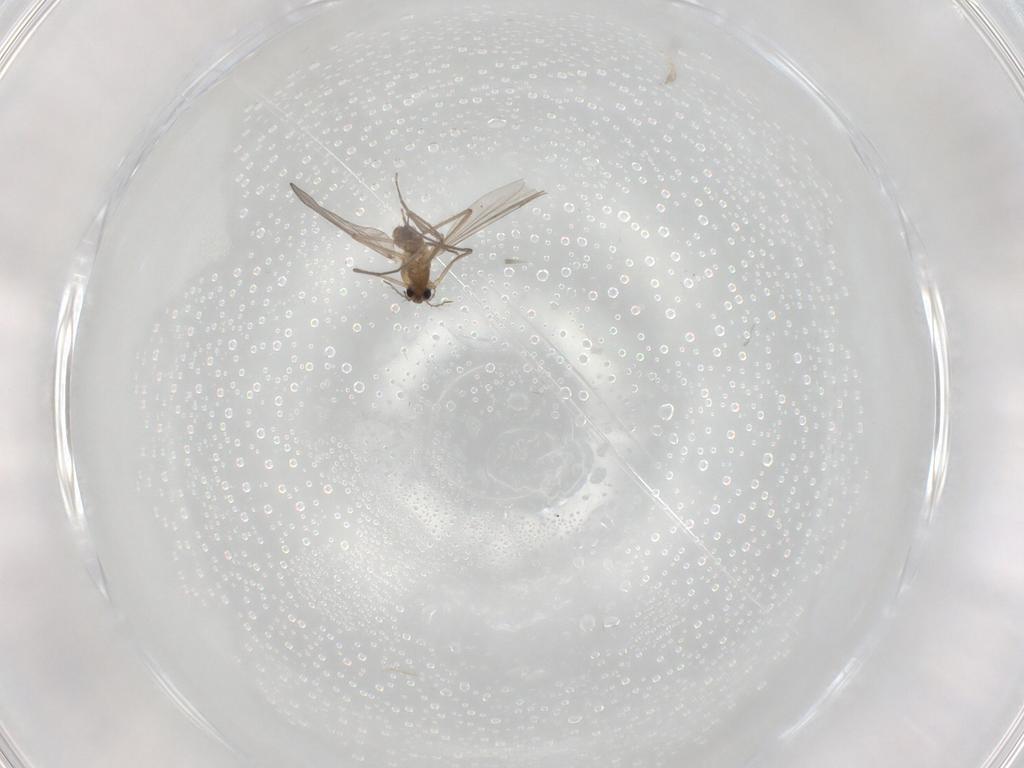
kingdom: Animalia
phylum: Arthropoda
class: Insecta
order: Diptera
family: Chironomidae
